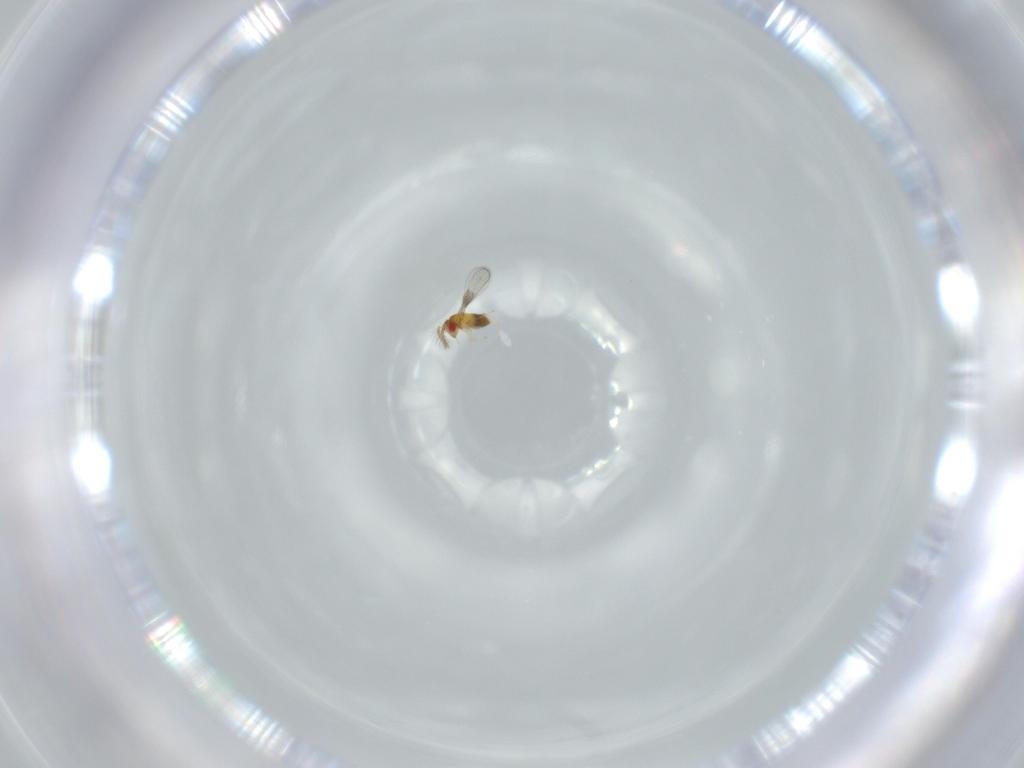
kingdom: Animalia
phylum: Arthropoda
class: Insecta
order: Hymenoptera
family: Trichogrammatidae
